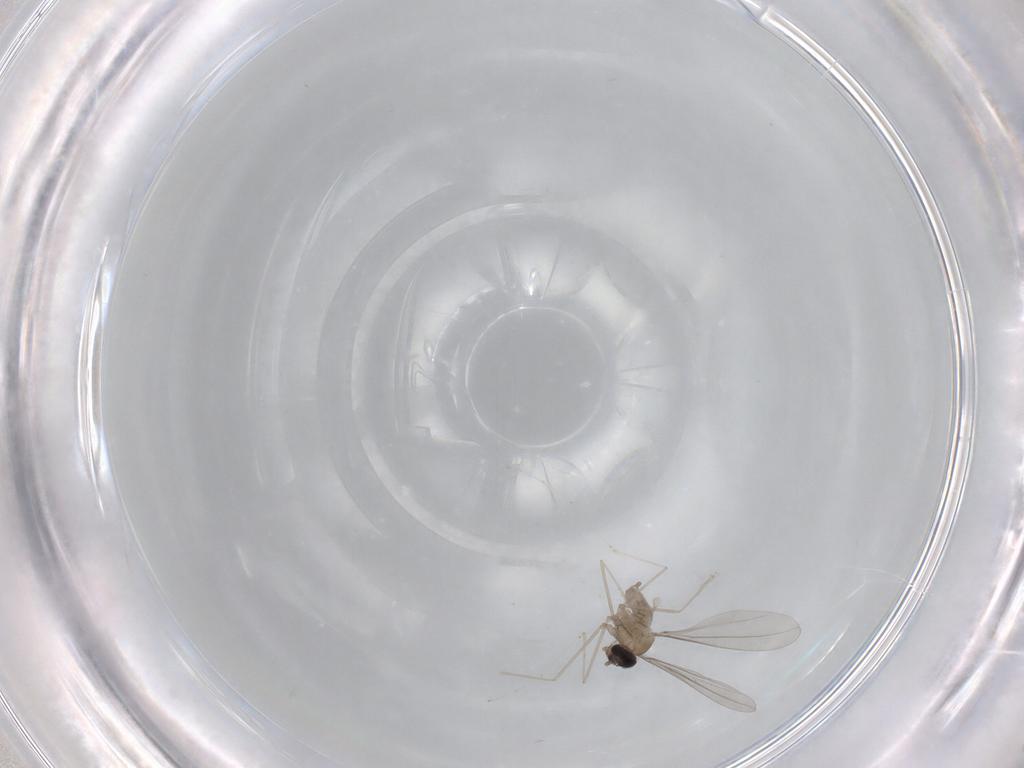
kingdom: Animalia
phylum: Arthropoda
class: Insecta
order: Diptera
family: Cecidomyiidae
